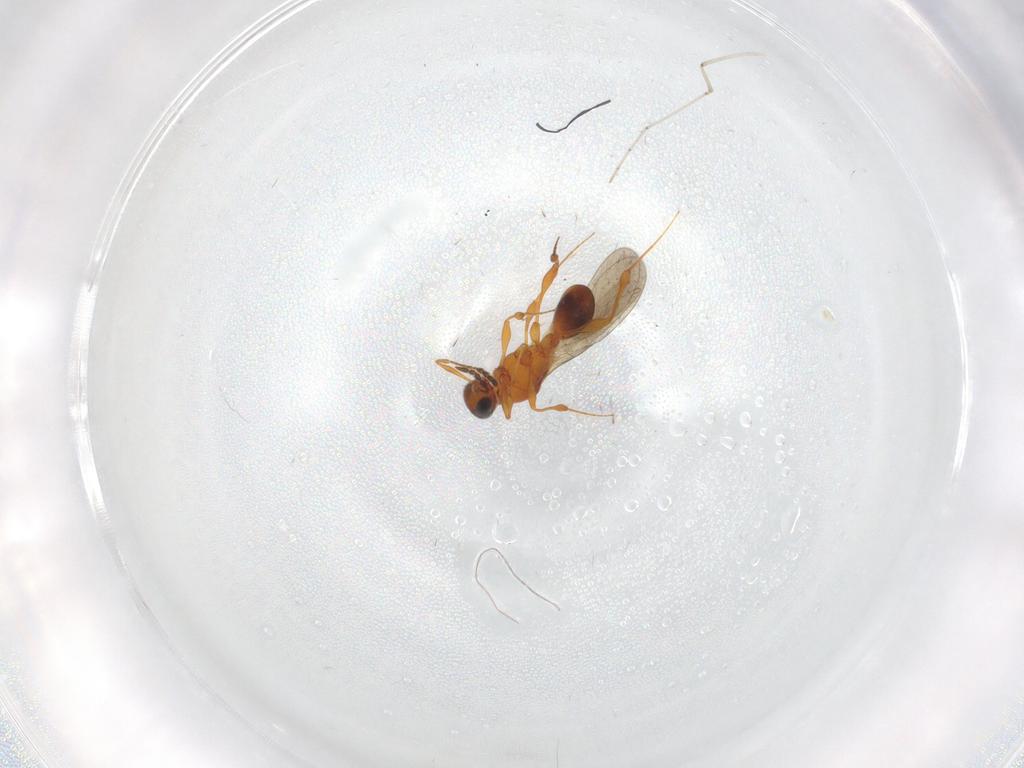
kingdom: Animalia
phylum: Arthropoda
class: Insecta
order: Hymenoptera
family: Platygastridae
